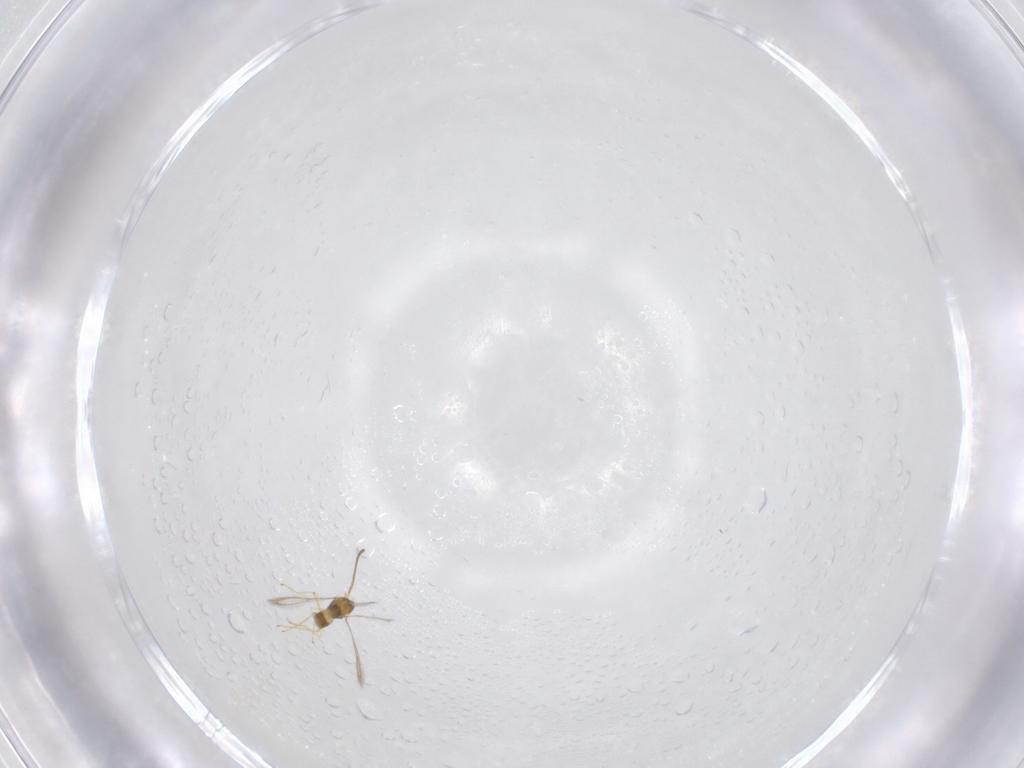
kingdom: Animalia
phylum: Arthropoda
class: Insecta
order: Hymenoptera
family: Mymaridae
